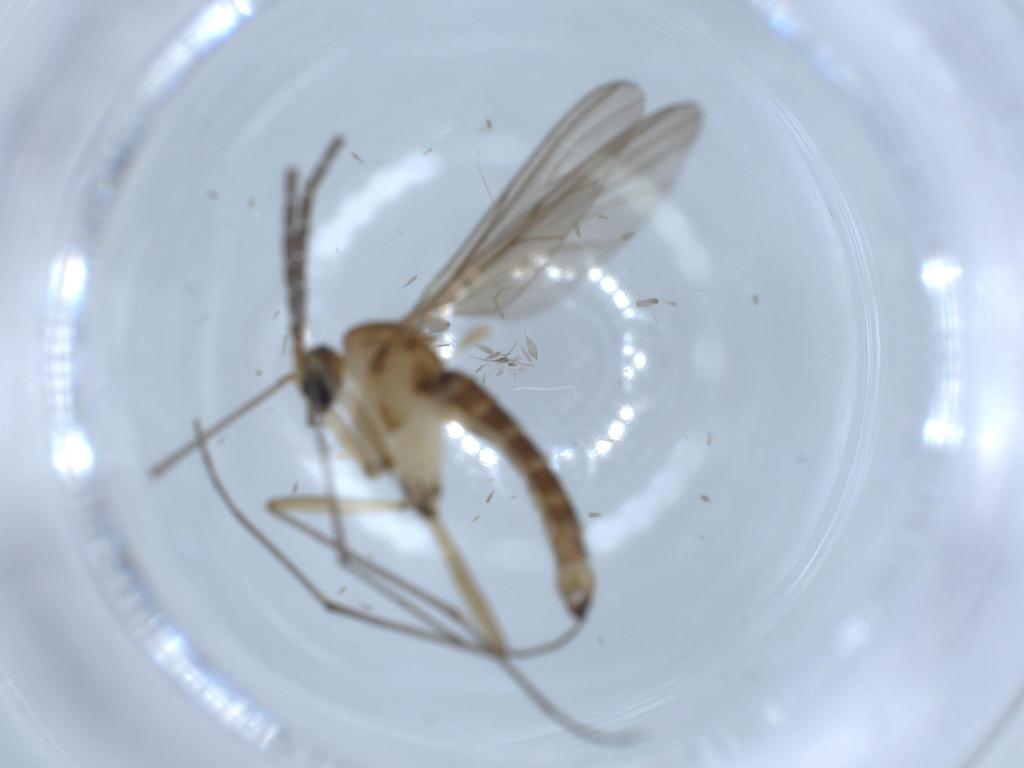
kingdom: Animalia
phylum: Arthropoda
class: Insecta
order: Diptera
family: Sciaridae
